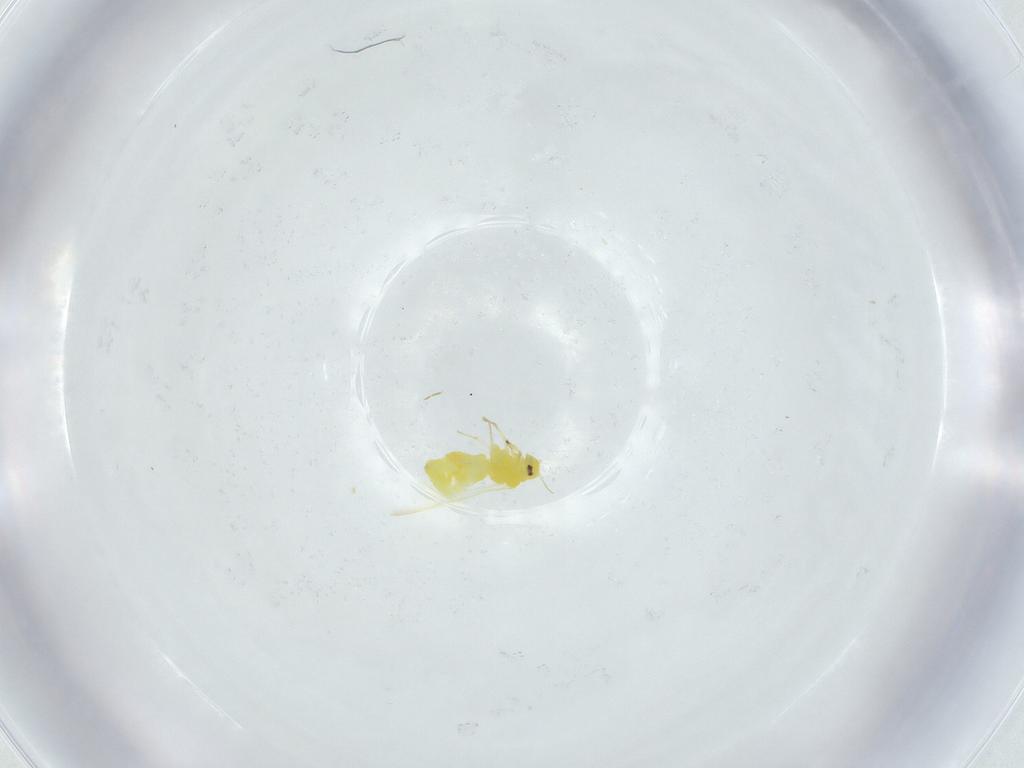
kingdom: Animalia
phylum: Arthropoda
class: Insecta
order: Hemiptera
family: Aleyrodidae
